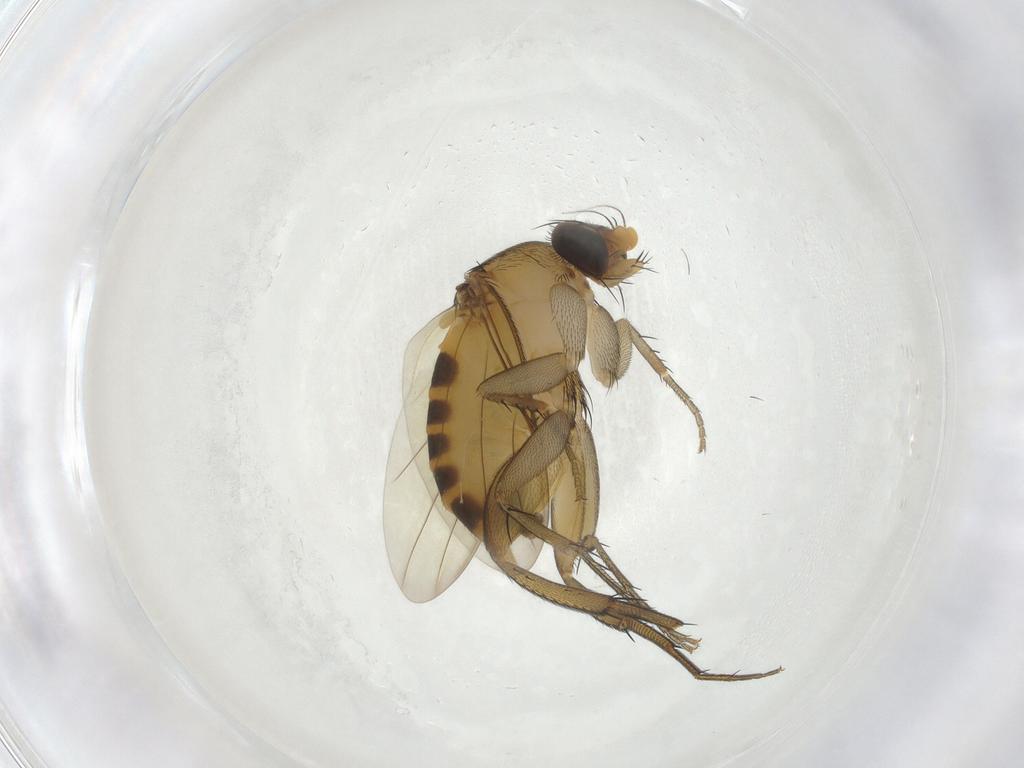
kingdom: Animalia
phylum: Arthropoda
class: Insecta
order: Diptera
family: Phoridae
